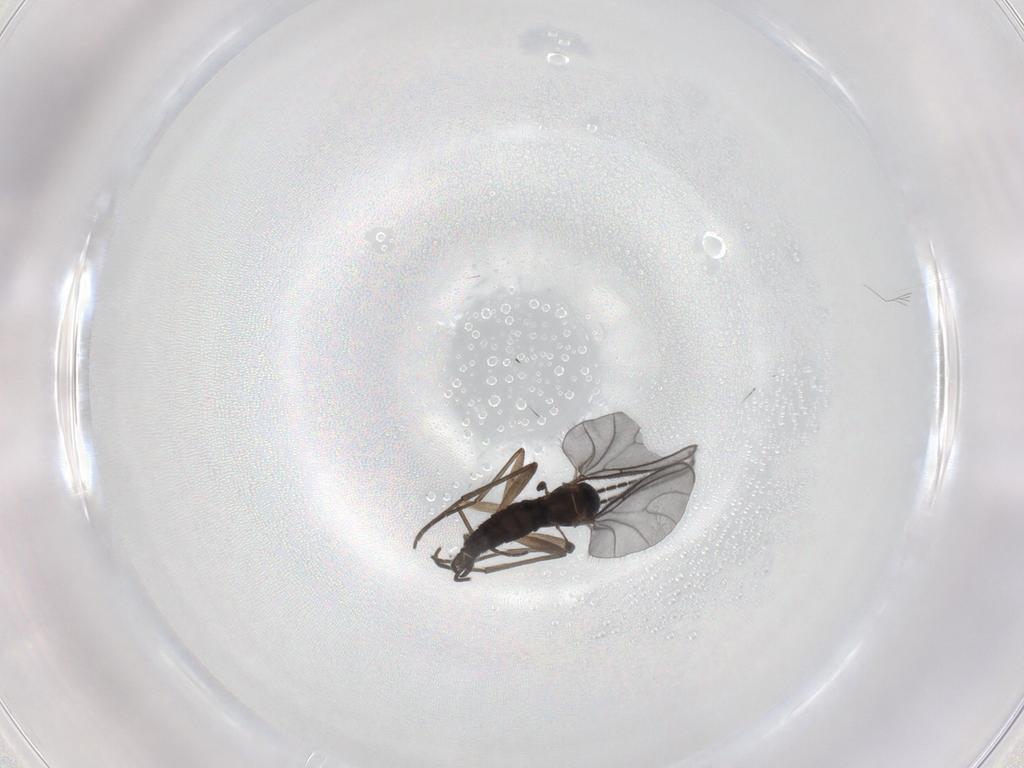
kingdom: Animalia
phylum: Arthropoda
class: Insecta
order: Diptera
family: Sciaridae
